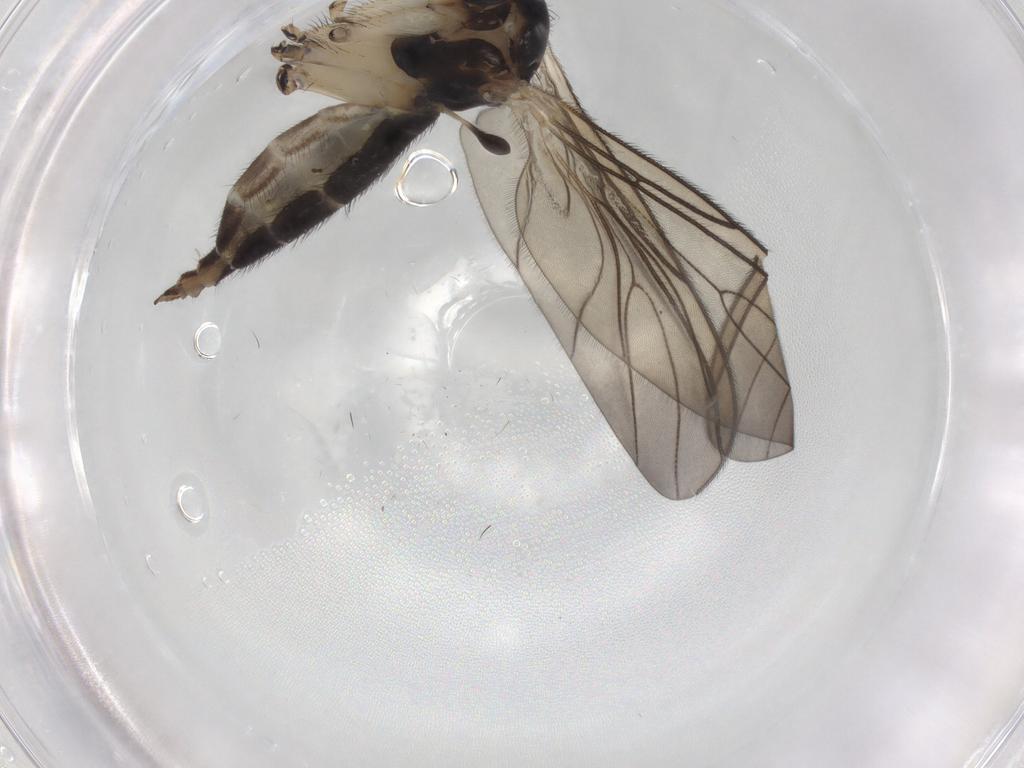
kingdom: Animalia
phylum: Arthropoda
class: Insecta
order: Diptera
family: Sciaridae
